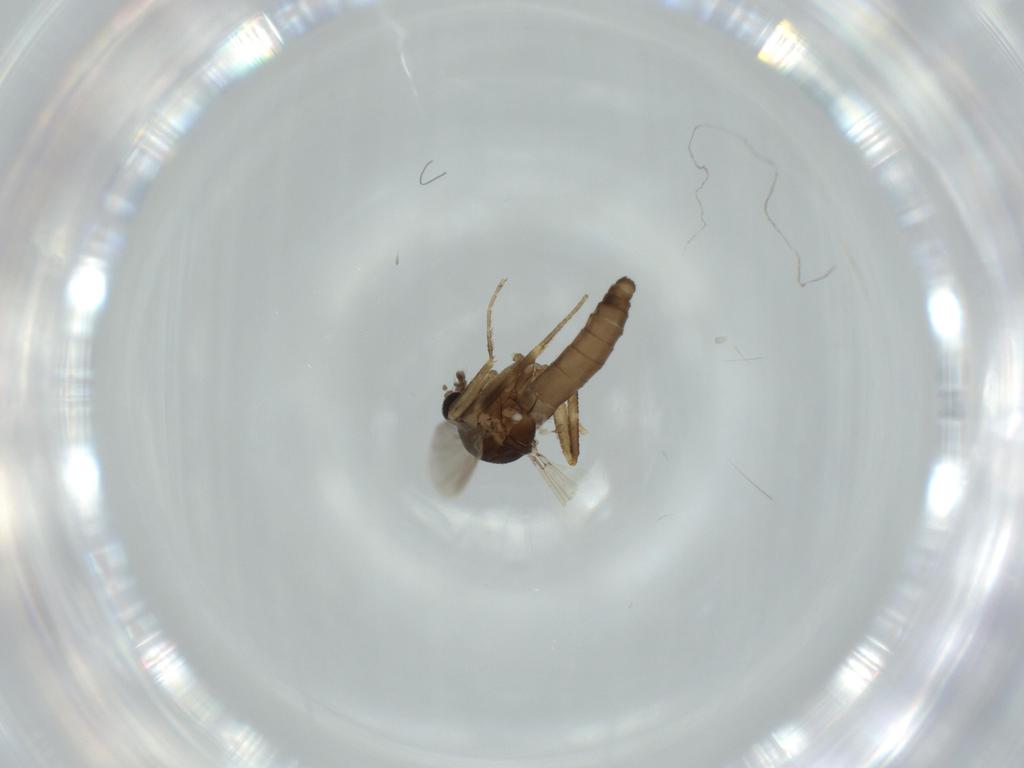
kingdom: Animalia
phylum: Arthropoda
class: Insecta
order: Diptera
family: Ceratopogonidae
